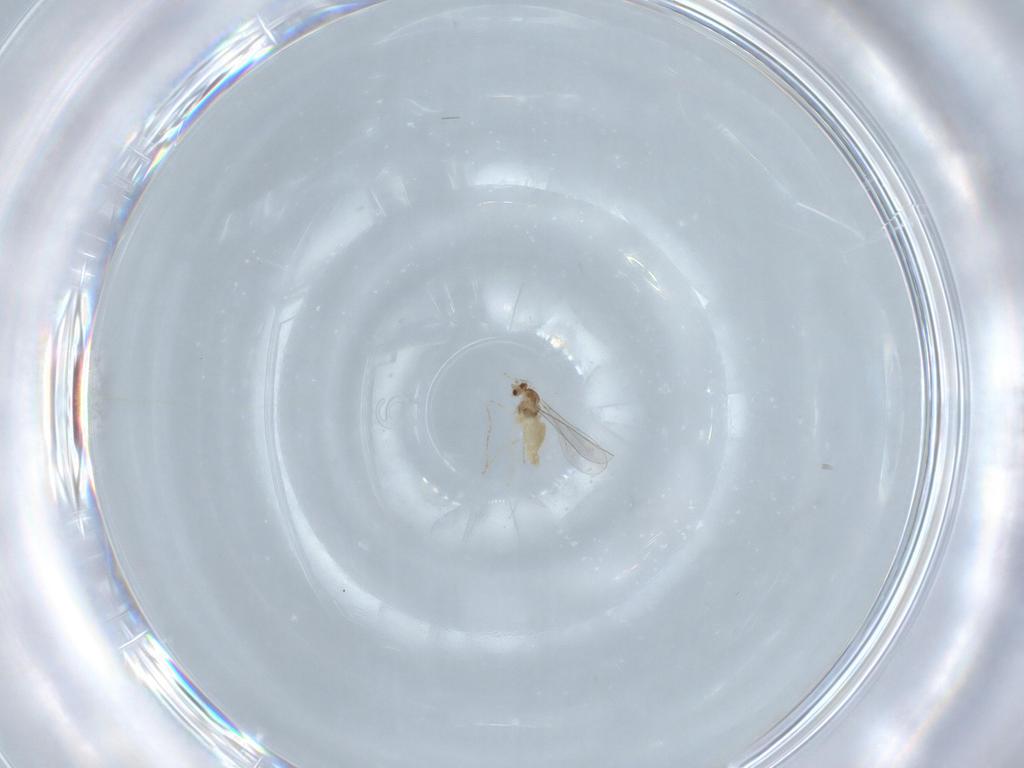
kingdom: Animalia
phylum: Arthropoda
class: Insecta
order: Diptera
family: Cecidomyiidae
